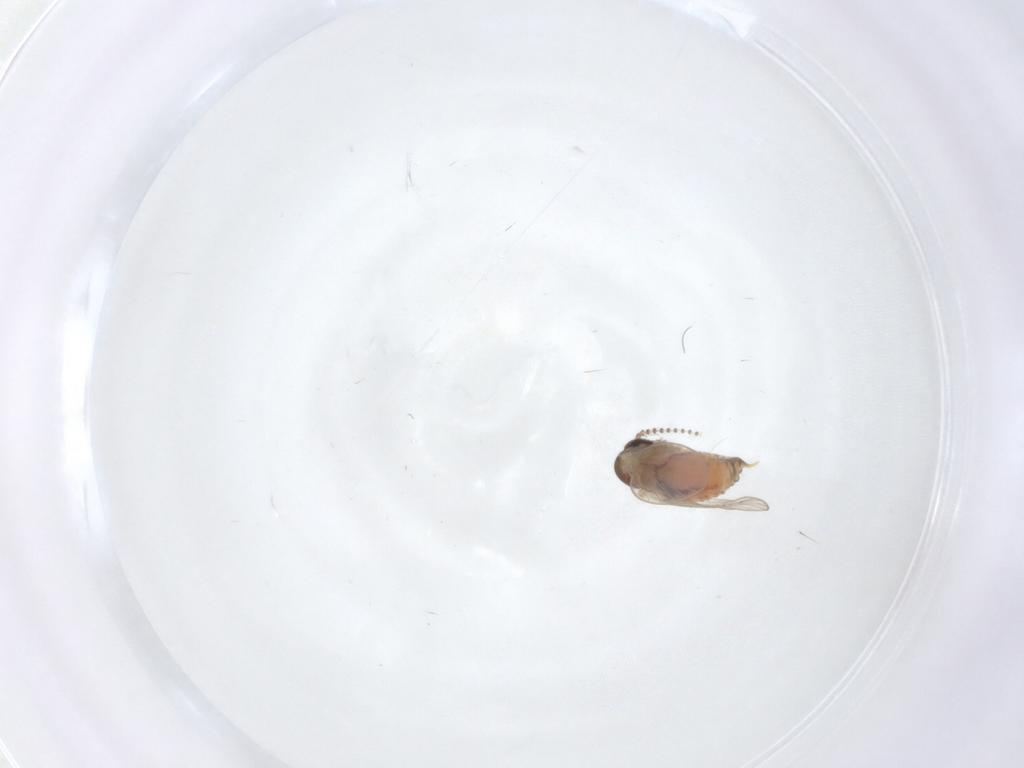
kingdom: Animalia
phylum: Arthropoda
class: Insecta
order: Diptera
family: Psychodidae
